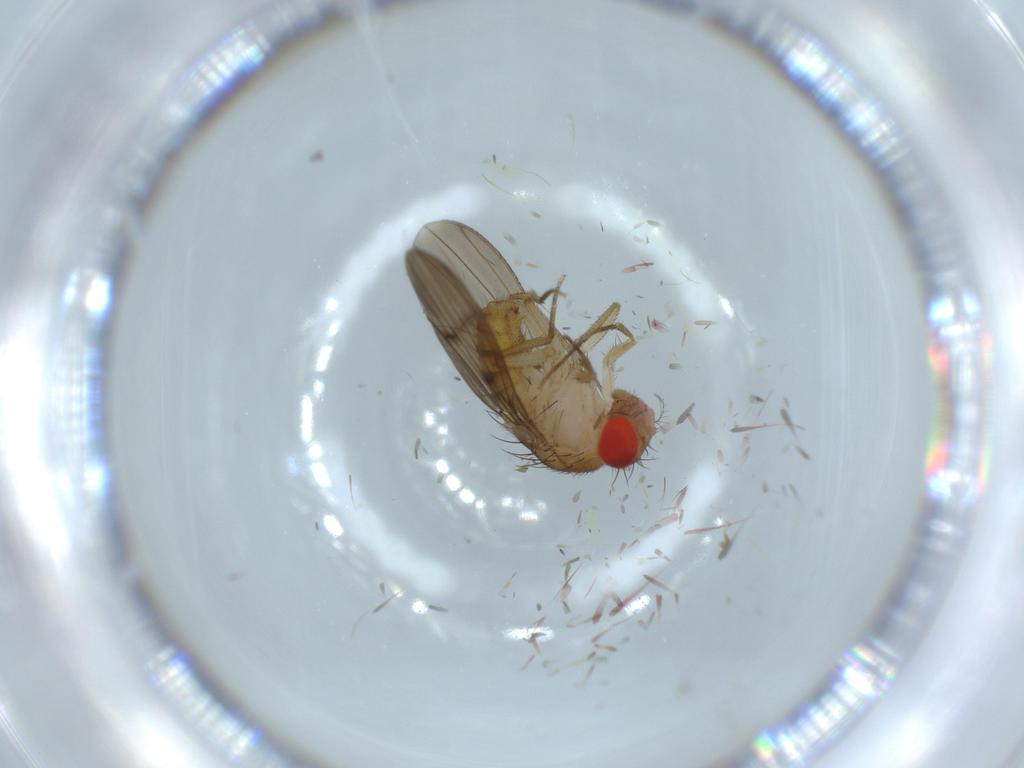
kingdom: Animalia
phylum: Arthropoda
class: Insecta
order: Diptera
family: Drosophilidae
